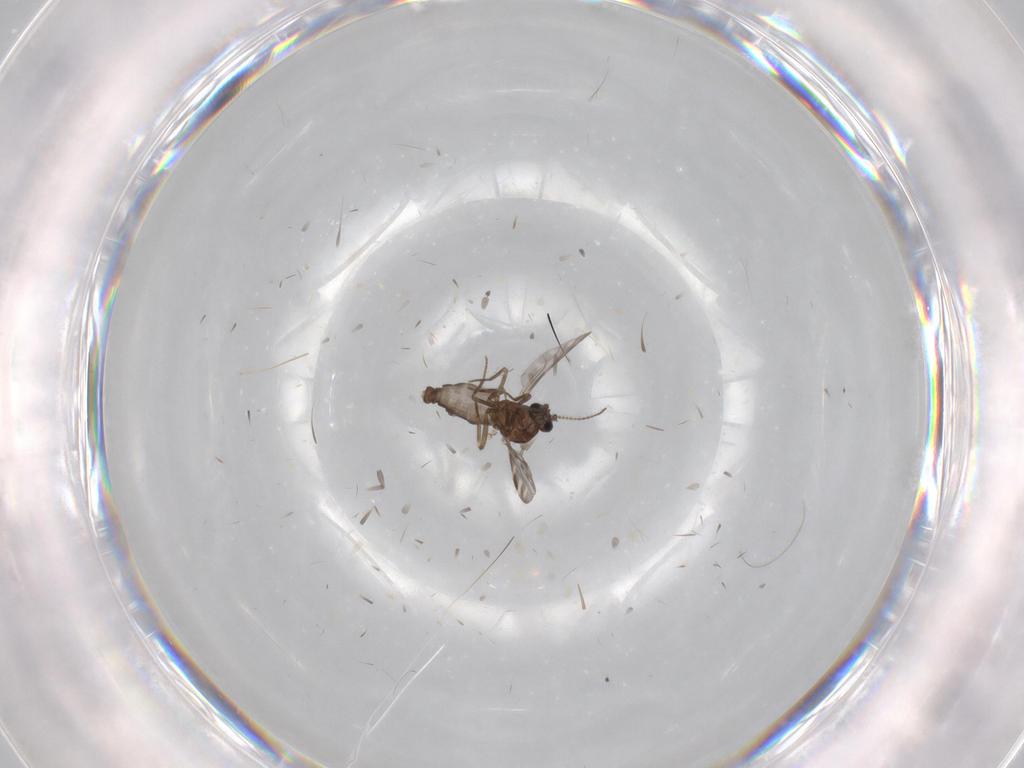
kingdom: Animalia
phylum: Arthropoda
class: Insecta
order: Diptera
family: Ceratopogonidae
